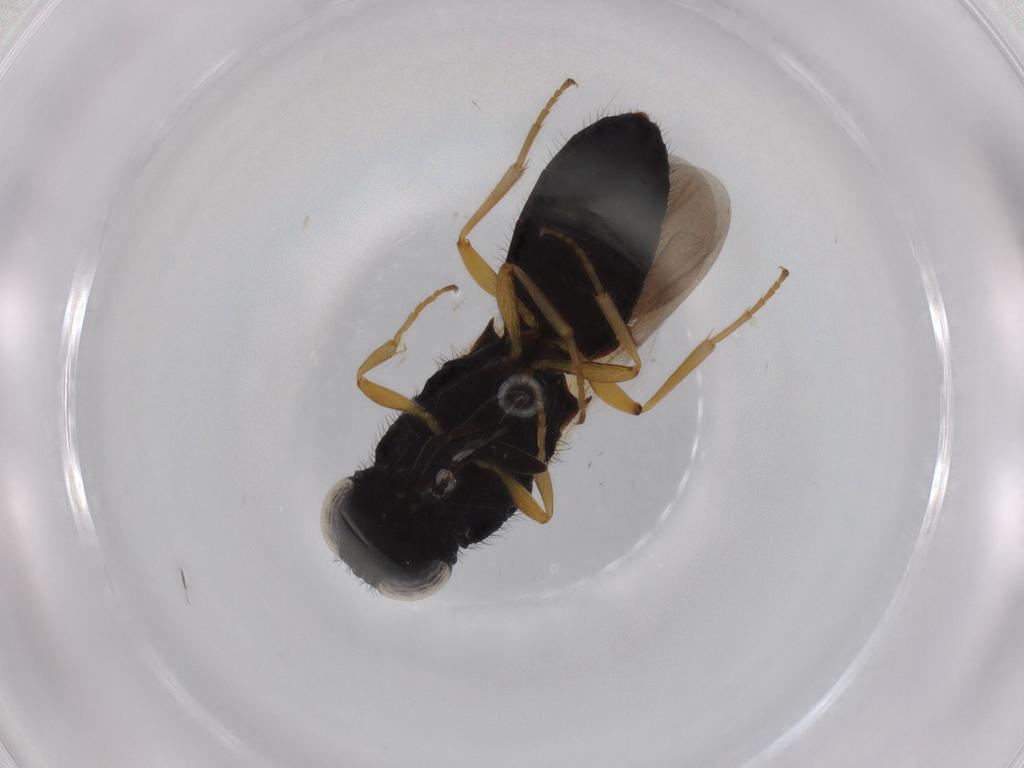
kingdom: Animalia
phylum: Arthropoda
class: Insecta
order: Hymenoptera
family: Scelionidae
